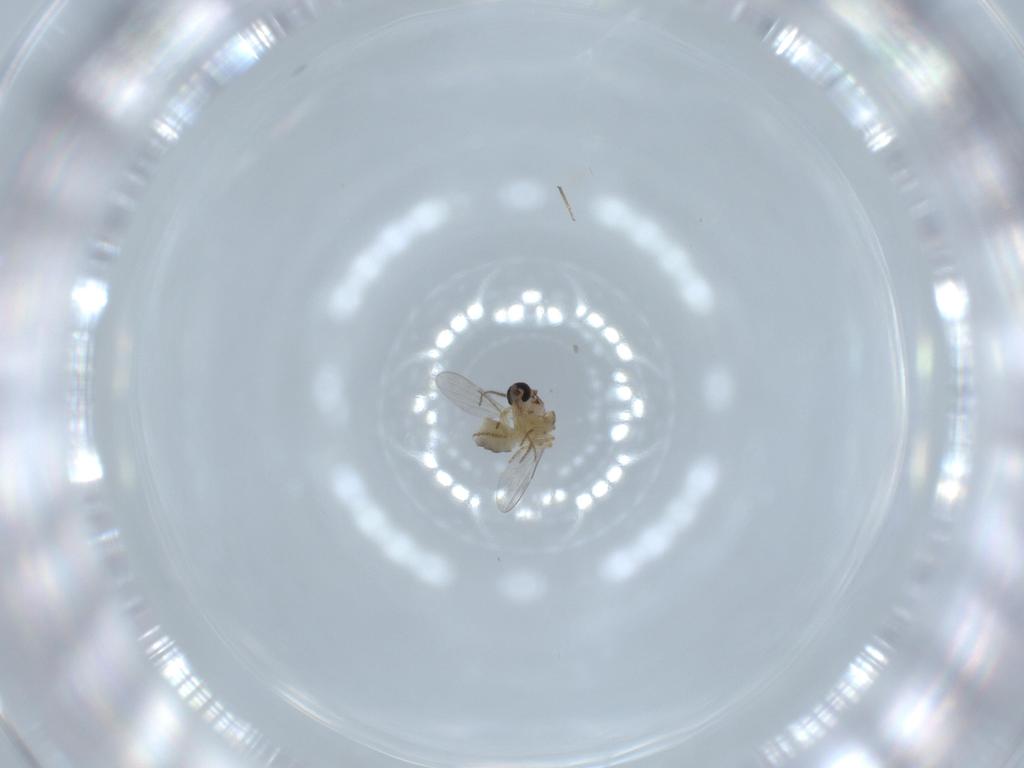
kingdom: Animalia
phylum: Arthropoda
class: Insecta
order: Diptera
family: Ceratopogonidae
